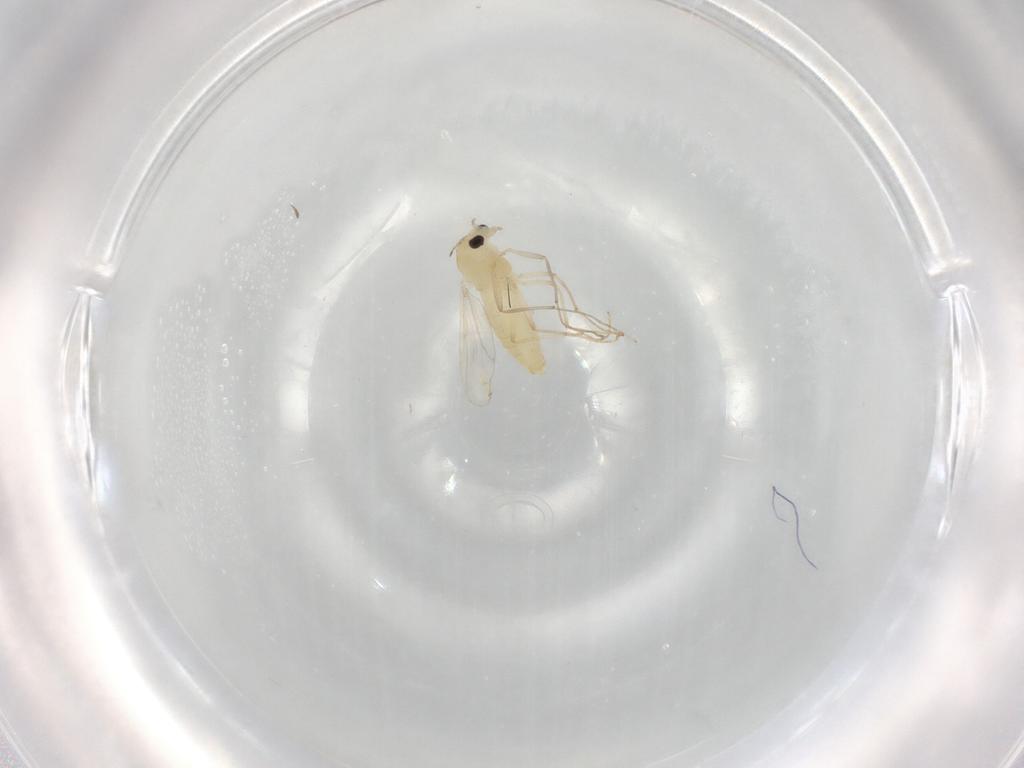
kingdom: Animalia
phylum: Arthropoda
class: Insecta
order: Diptera
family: Chironomidae
